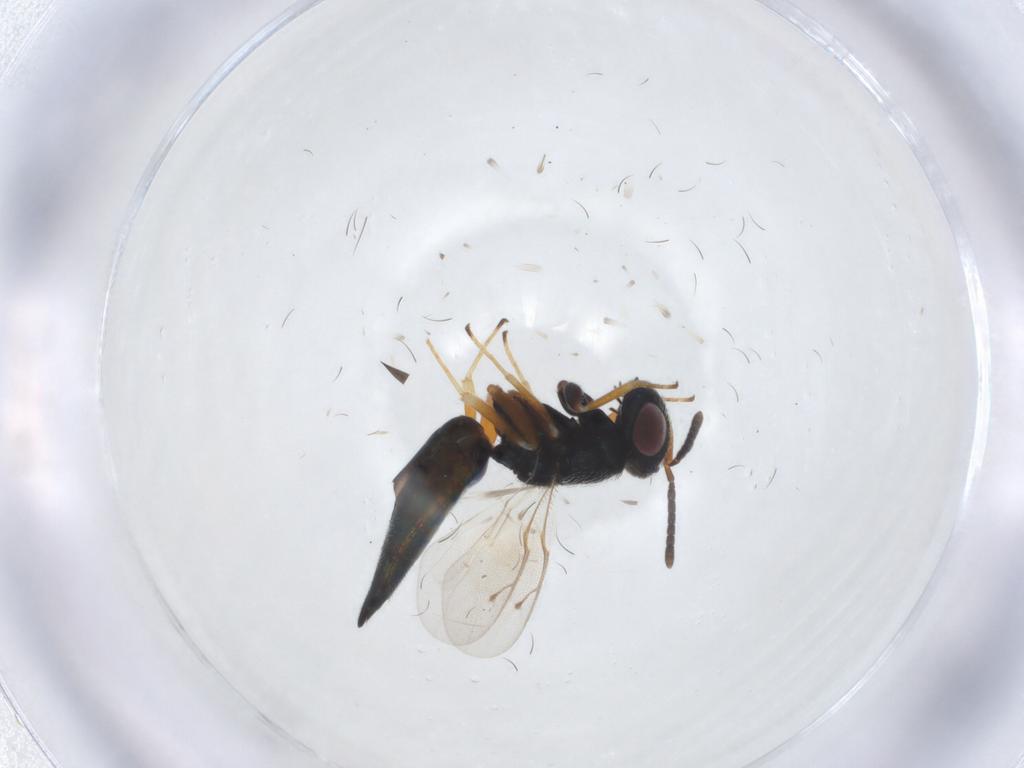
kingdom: Animalia
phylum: Arthropoda
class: Insecta
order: Hymenoptera
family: Pteromalidae
